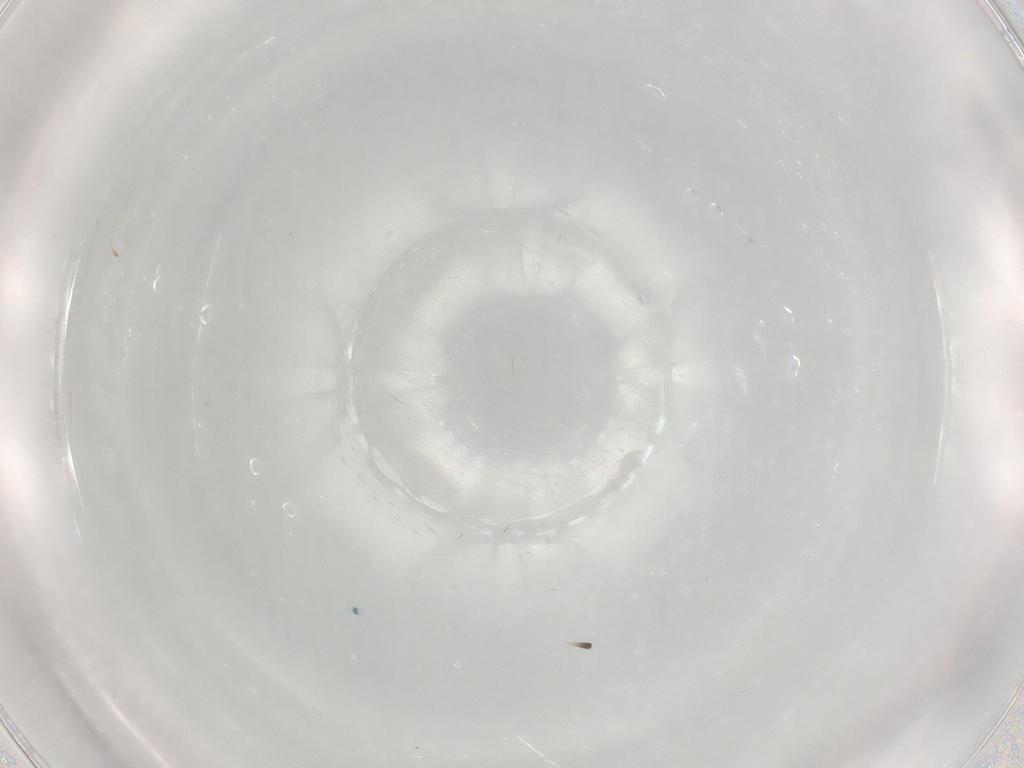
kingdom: Animalia
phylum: Arthropoda
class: Insecta
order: Diptera
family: Phoridae
